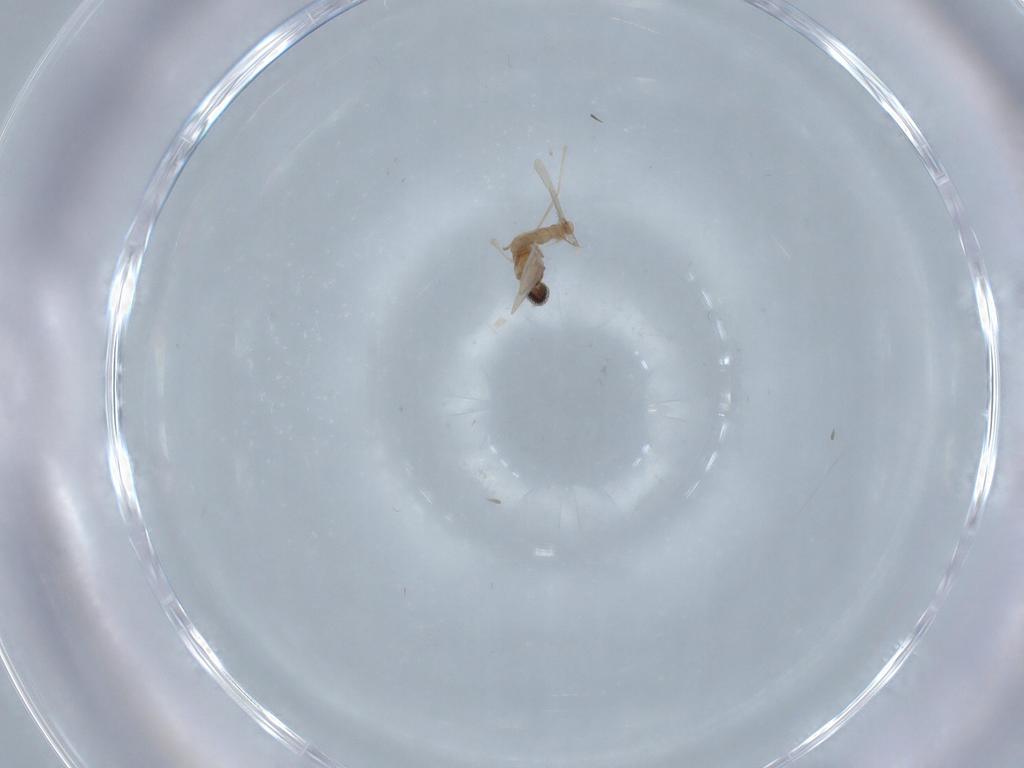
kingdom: Animalia
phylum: Arthropoda
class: Insecta
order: Diptera
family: Cecidomyiidae
